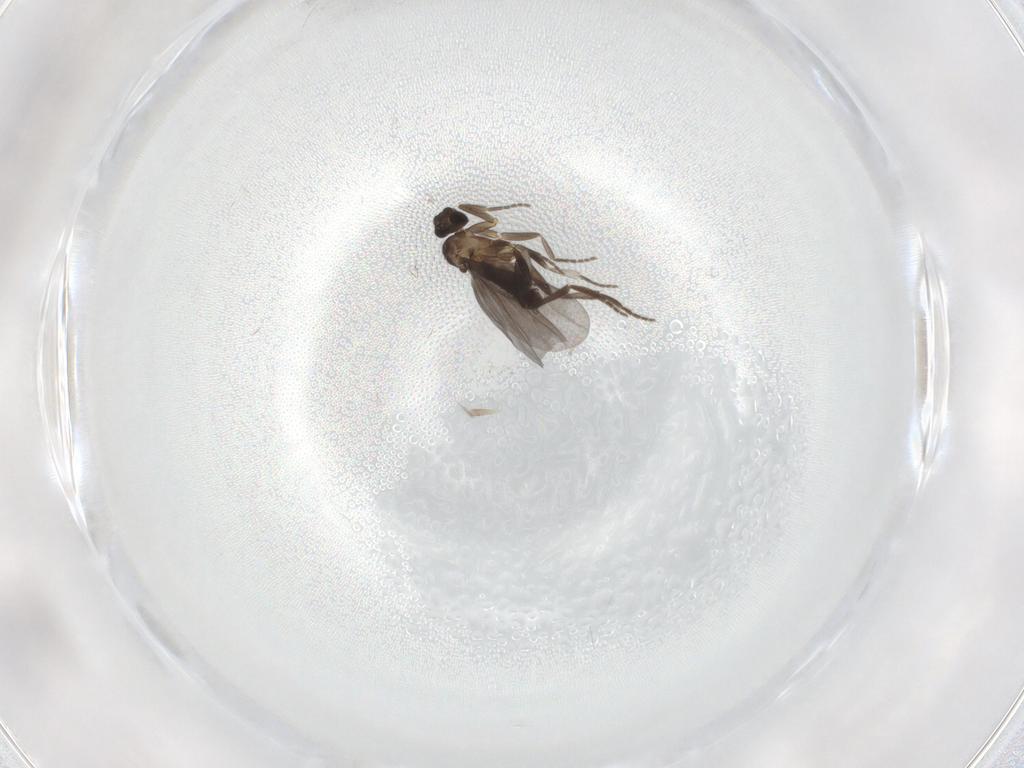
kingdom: Animalia
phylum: Arthropoda
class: Insecta
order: Diptera
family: Phoridae
